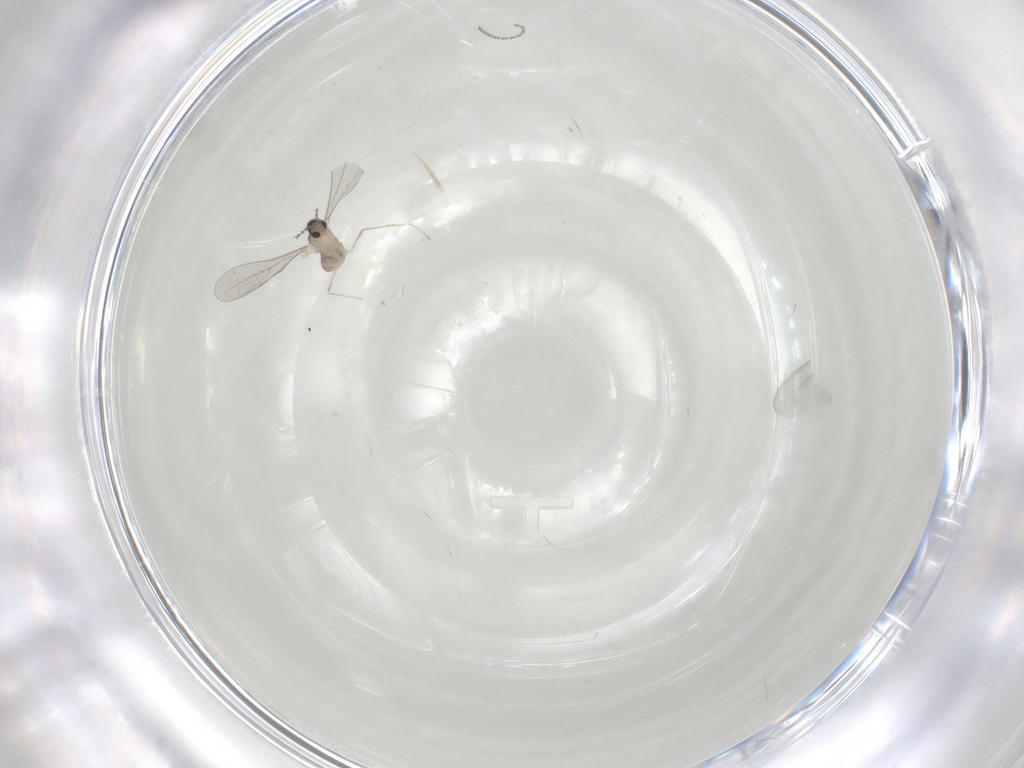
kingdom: Animalia
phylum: Arthropoda
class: Insecta
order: Diptera
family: Cecidomyiidae
